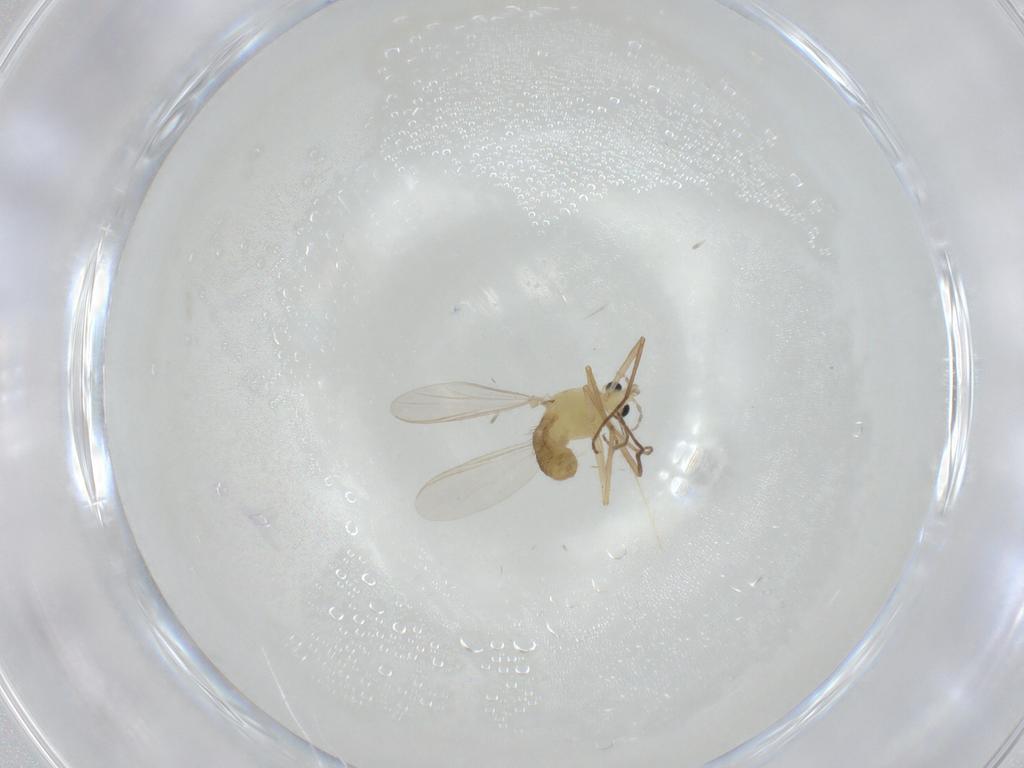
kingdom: Animalia
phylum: Arthropoda
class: Insecta
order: Diptera
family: Chironomidae
